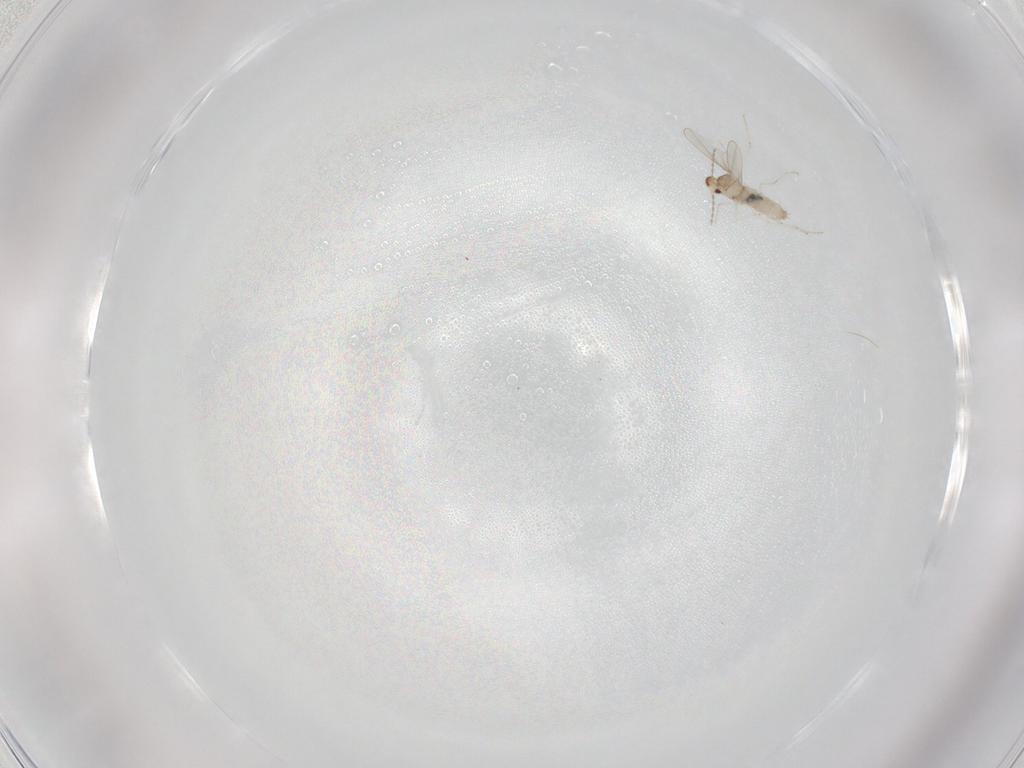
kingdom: Animalia
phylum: Arthropoda
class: Insecta
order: Diptera
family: Cecidomyiidae
